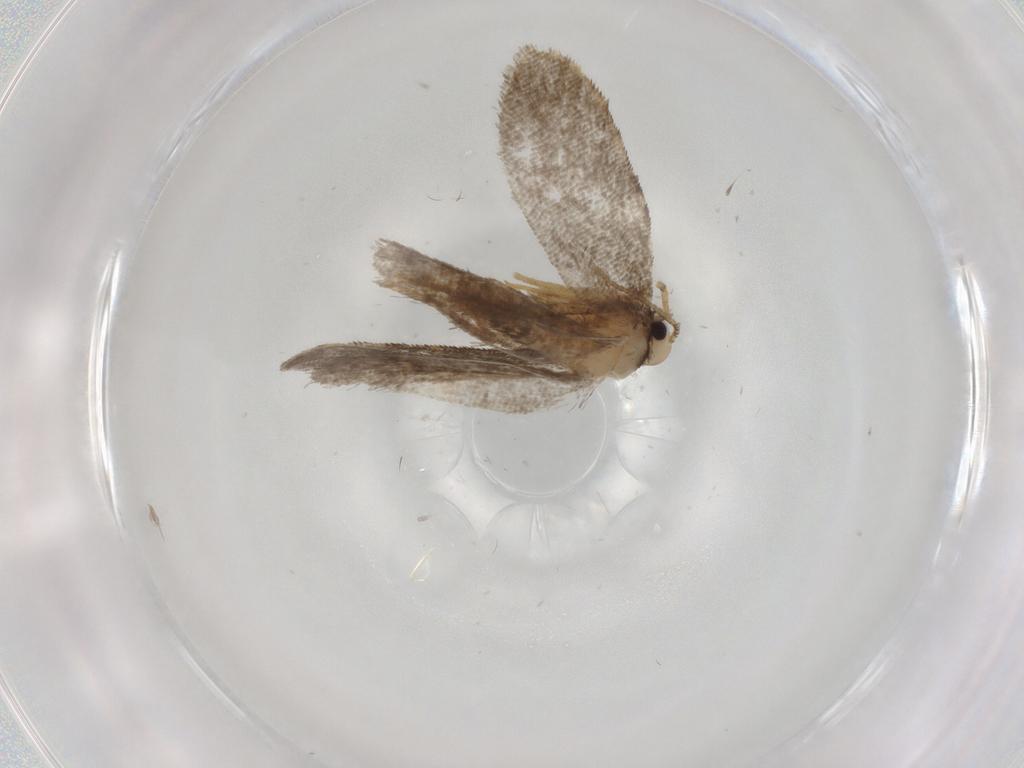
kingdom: Animalia
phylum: Arthropoda
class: Insecta
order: Lepidoptera
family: Psychidae
